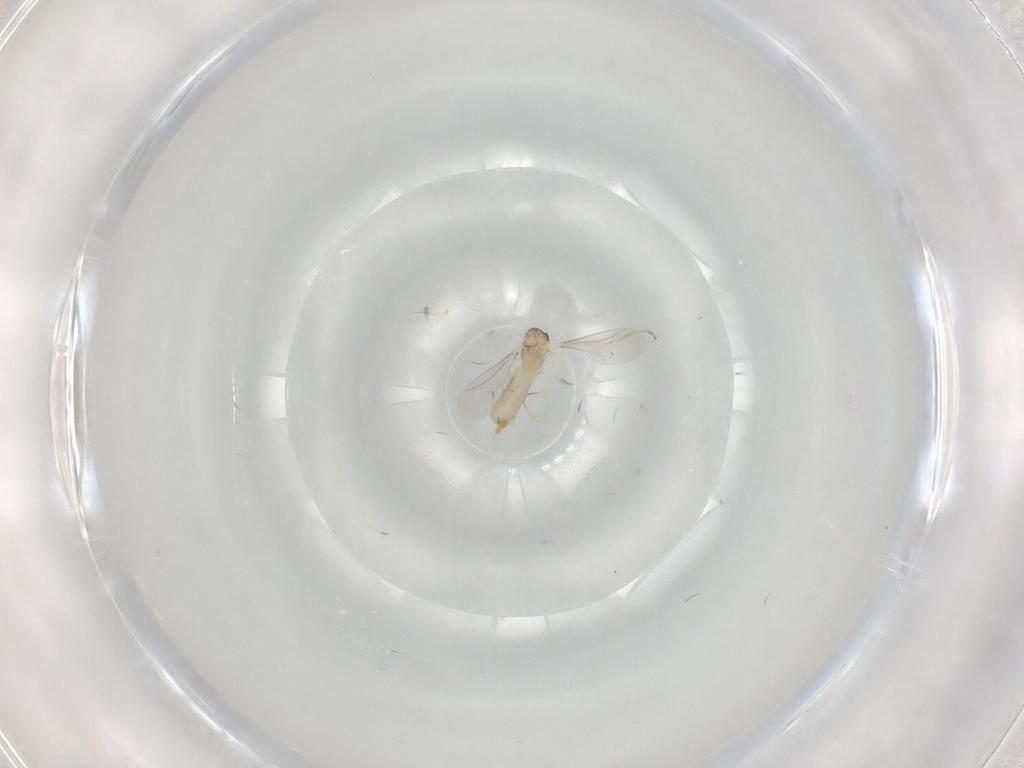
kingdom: Animalia
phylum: Arthropoda
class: Insecta
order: Diptera
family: Cecidomyiidae
